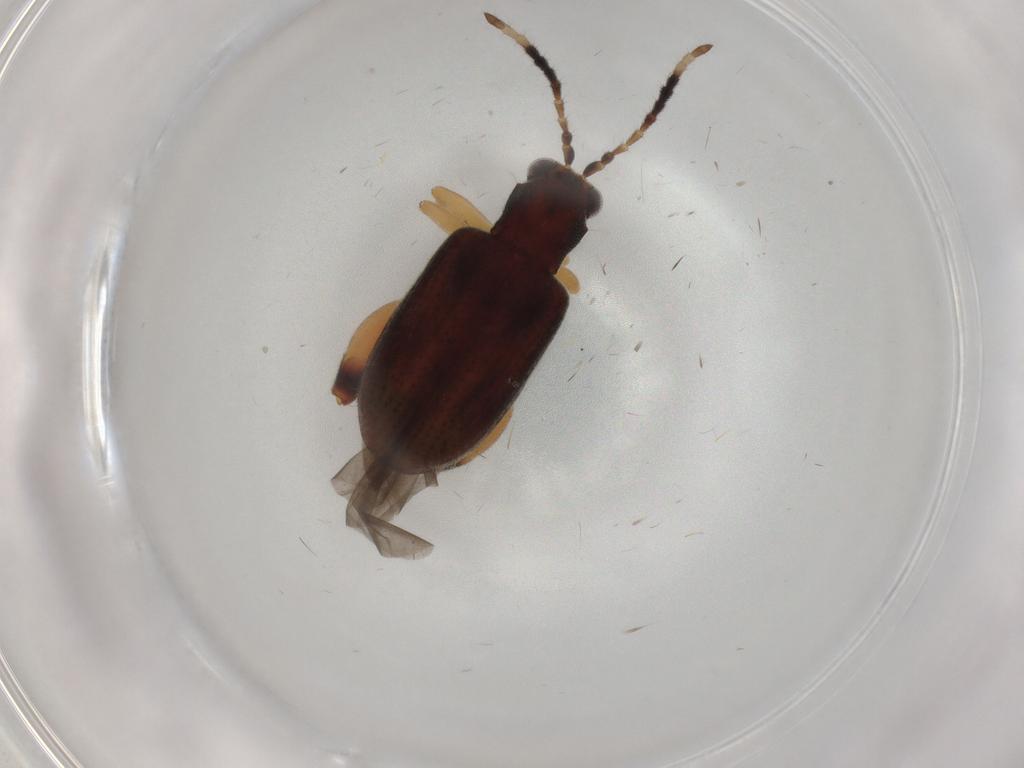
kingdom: Animalia
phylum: Arthropoda
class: Insecta
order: Coleoptera
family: Chrysomelidae
